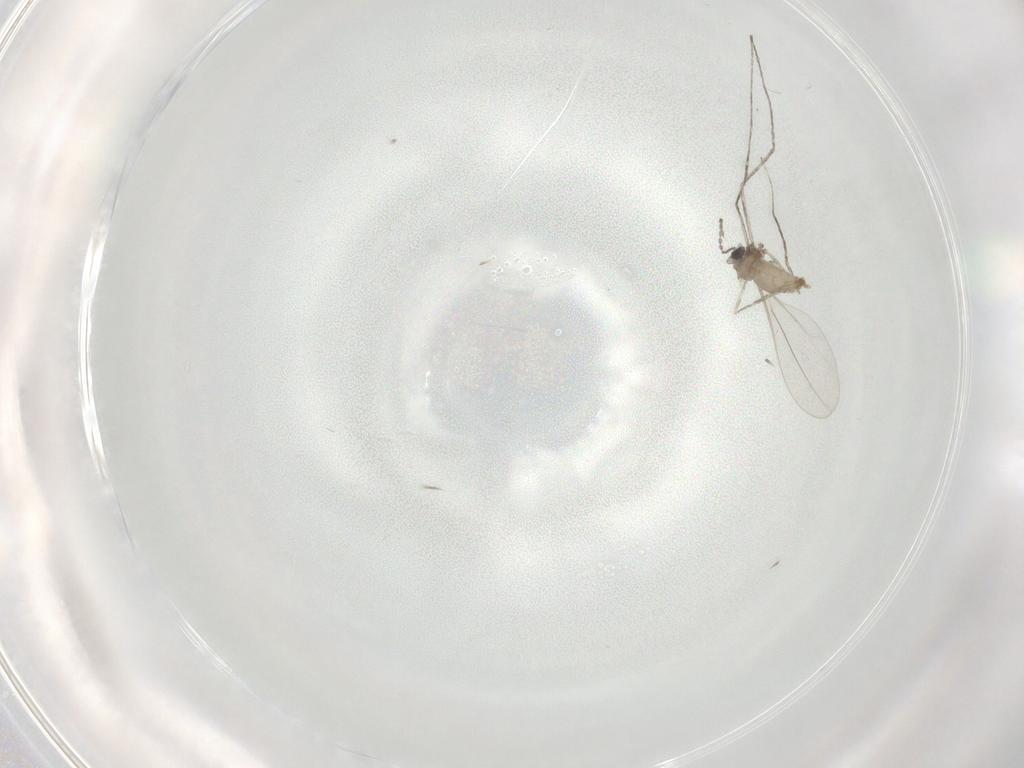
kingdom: Animalia
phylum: Arthropoda
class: Insecta
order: Diptera
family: Cecidomyiidae
